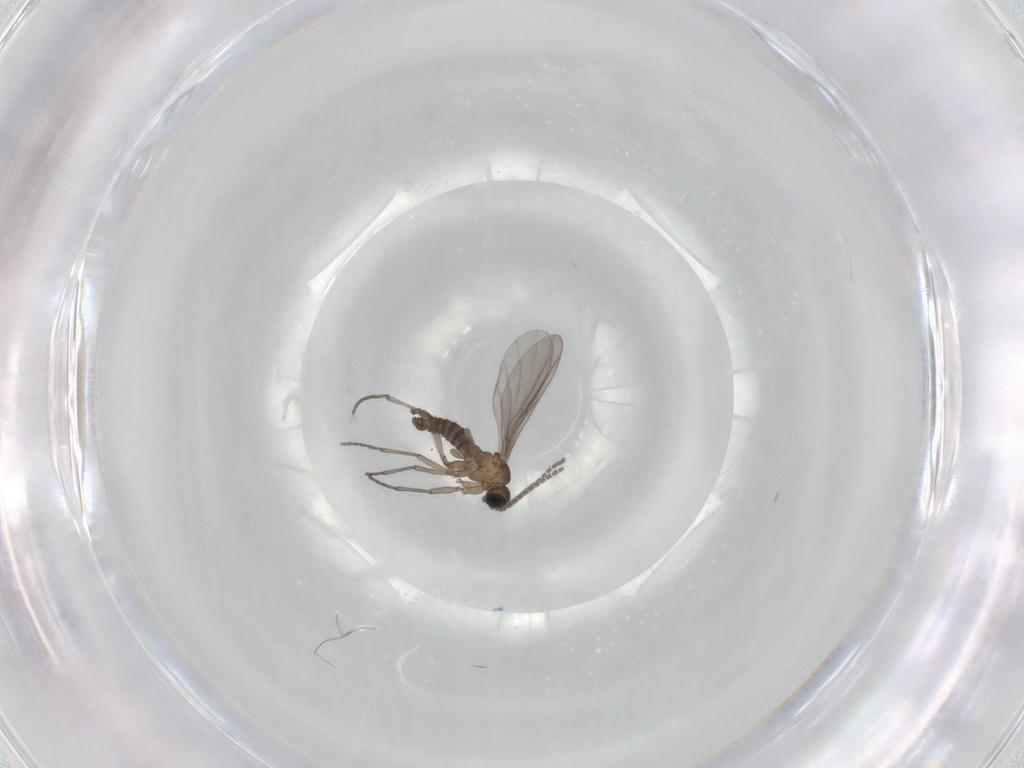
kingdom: Animalia
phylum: Arthropoda
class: Insecta
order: Diptera
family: Sciaridae
